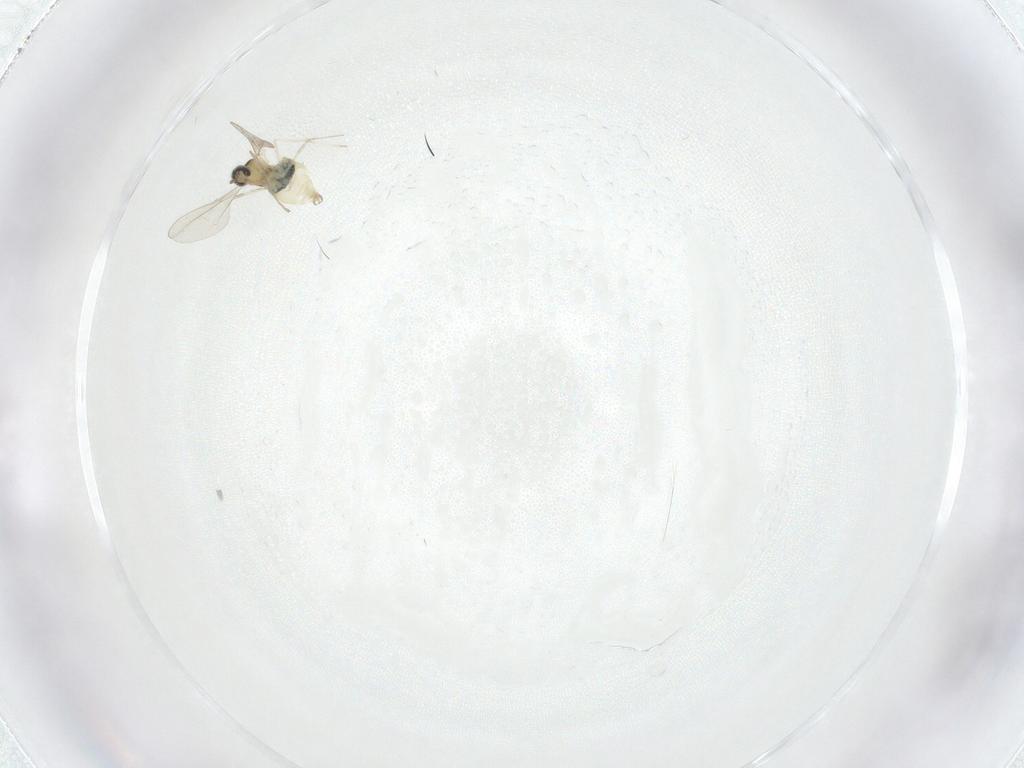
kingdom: Animalia
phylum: Arthropoda
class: Insecta
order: Diptera
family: Cecidomyiidae
